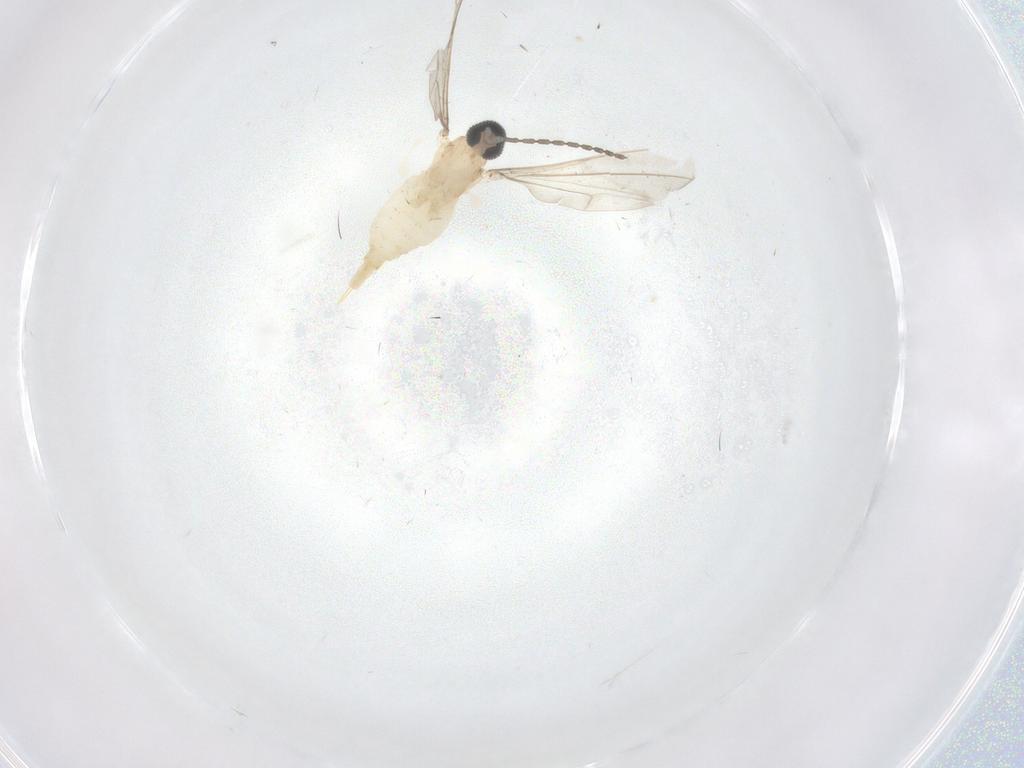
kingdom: Animalia
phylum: Arthropoda
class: Insecta
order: Diptera
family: Cecidomyiidae
